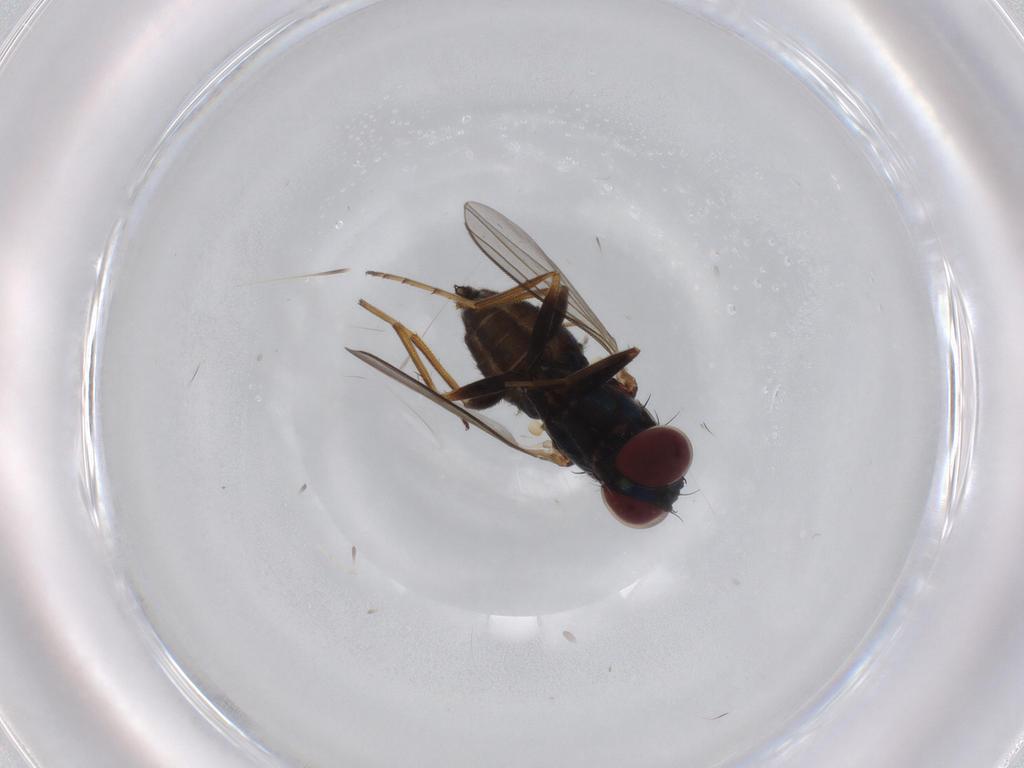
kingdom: Animalia
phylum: Arthropoda
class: Insecta
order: Diptera
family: Dolichopodidae
